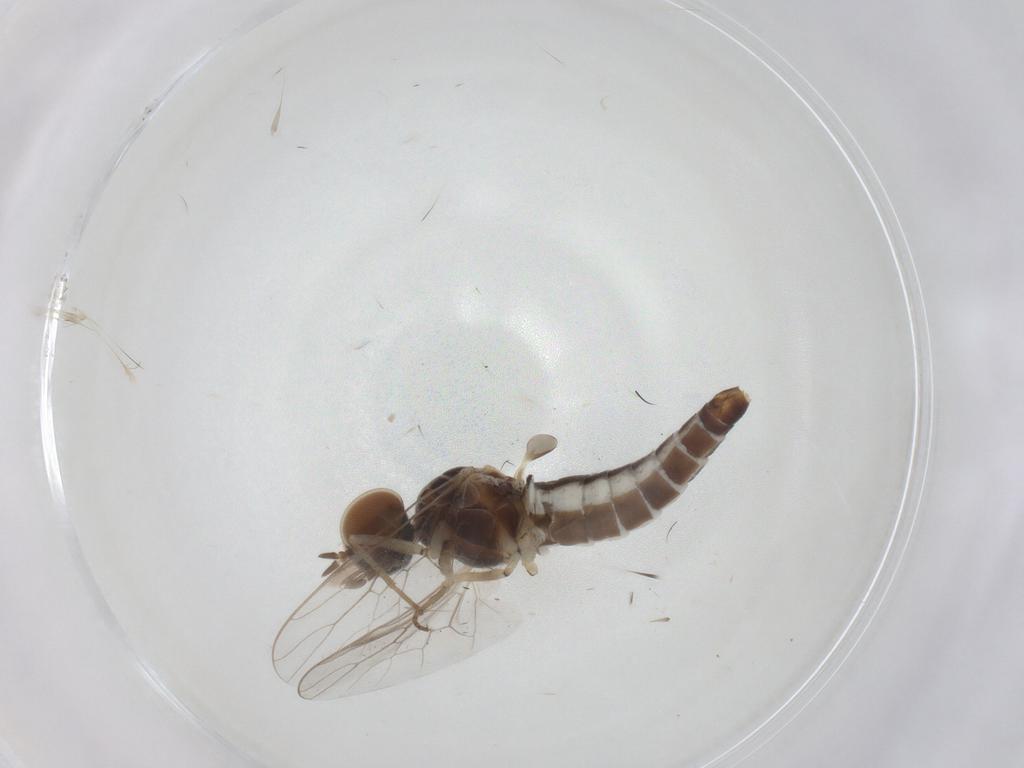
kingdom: Animalia
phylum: Arthropoda
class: Insecta
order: Diptera
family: Scenopinidae
